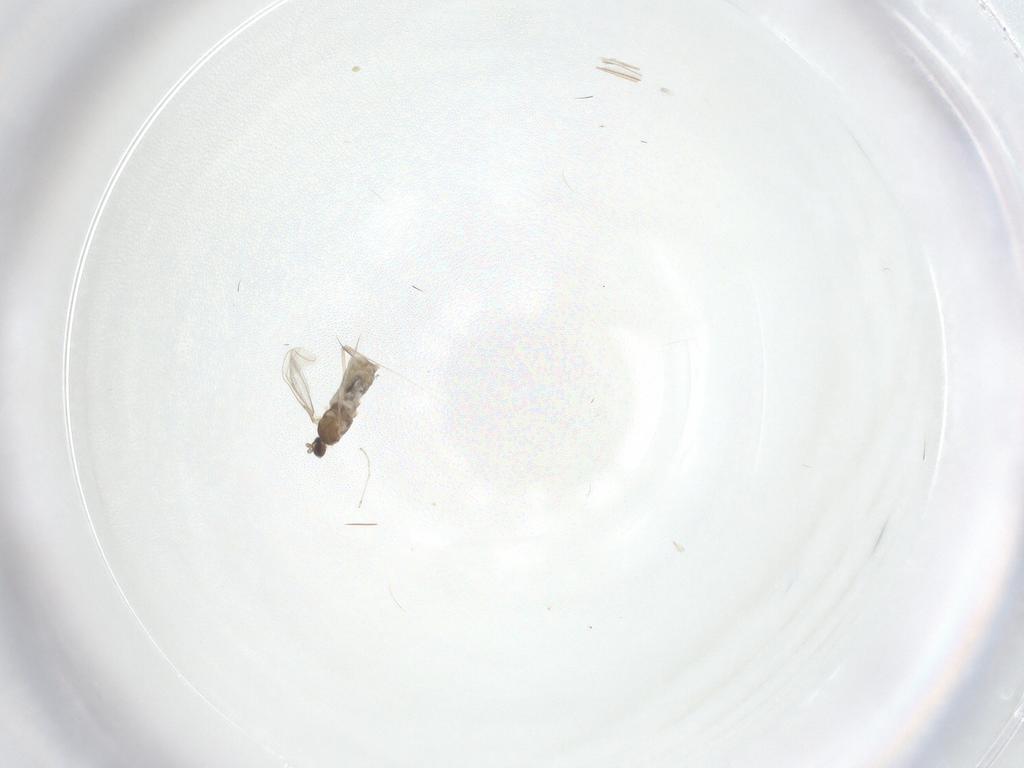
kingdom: Animalia
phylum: Arthropoda
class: Insecta
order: Diptera
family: Cecidomyiidae
